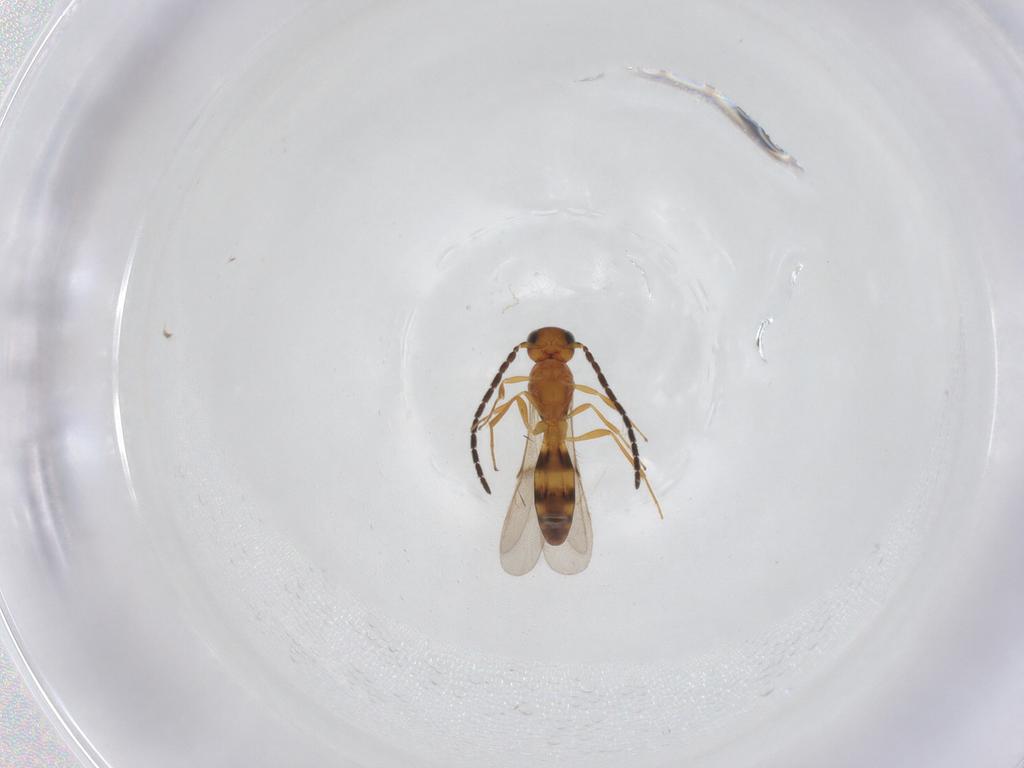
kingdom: Animalia
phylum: Arthropoda
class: Insecta
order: Hymenoptera
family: Scelionidae
